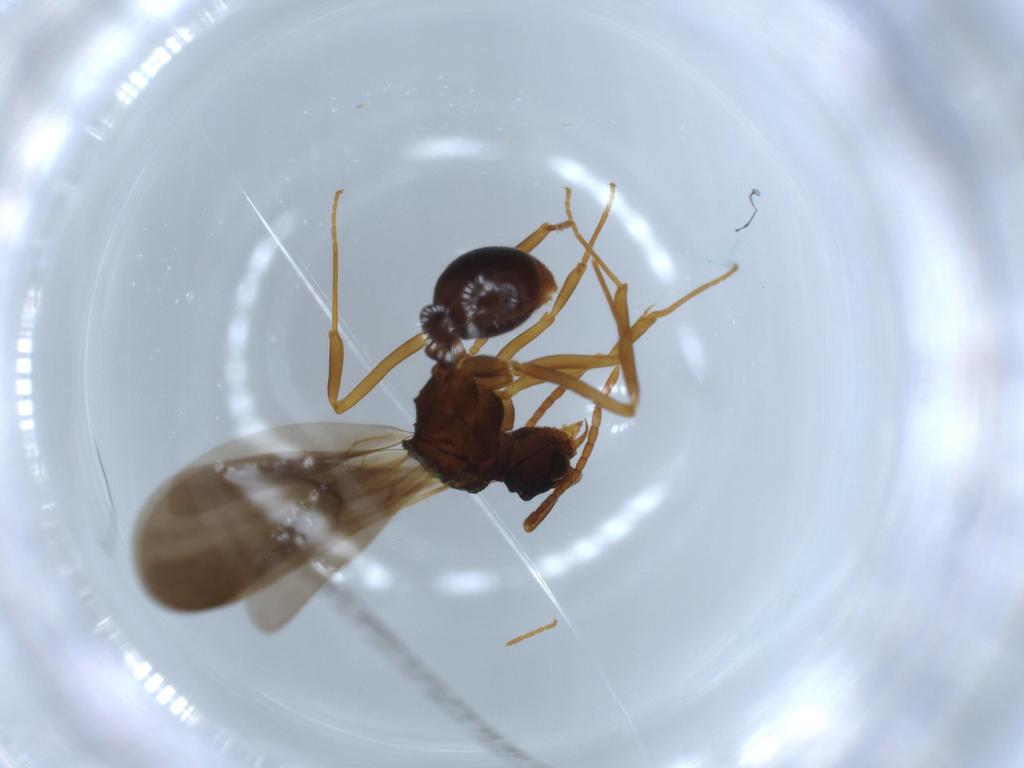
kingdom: Animalia
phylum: Arthropoda
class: Insecta
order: Hymenoptera
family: Formicidae
